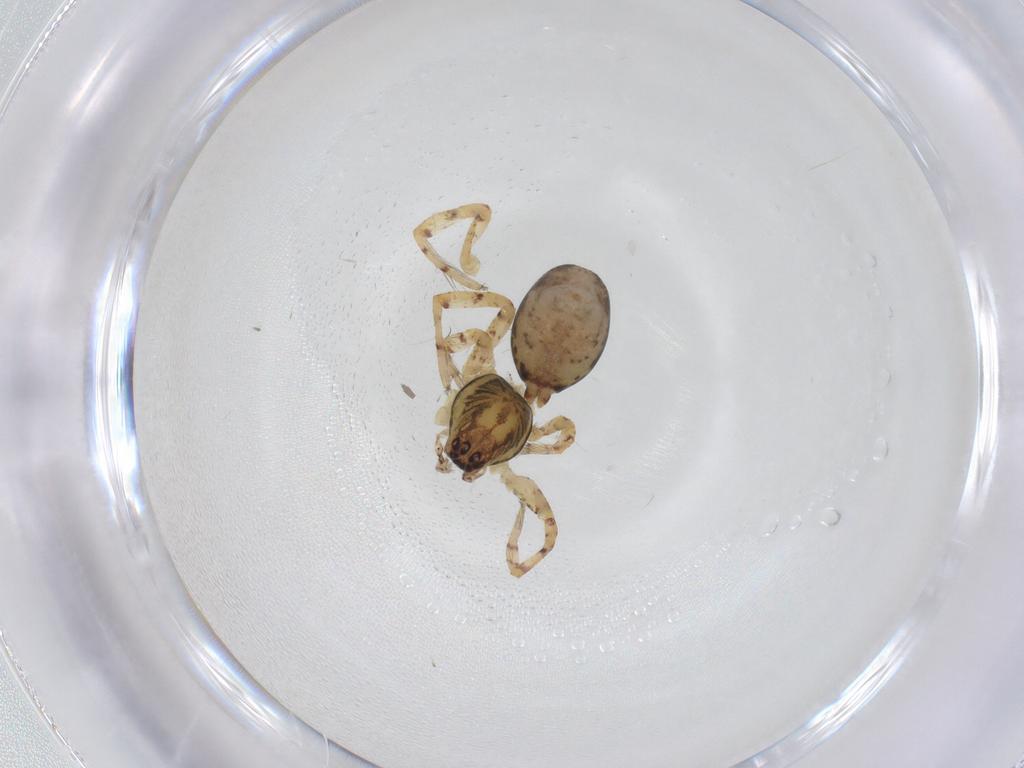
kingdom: Animalia
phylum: Arthropoda
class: Arachnida
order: Araneae
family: Anyphaenidae
